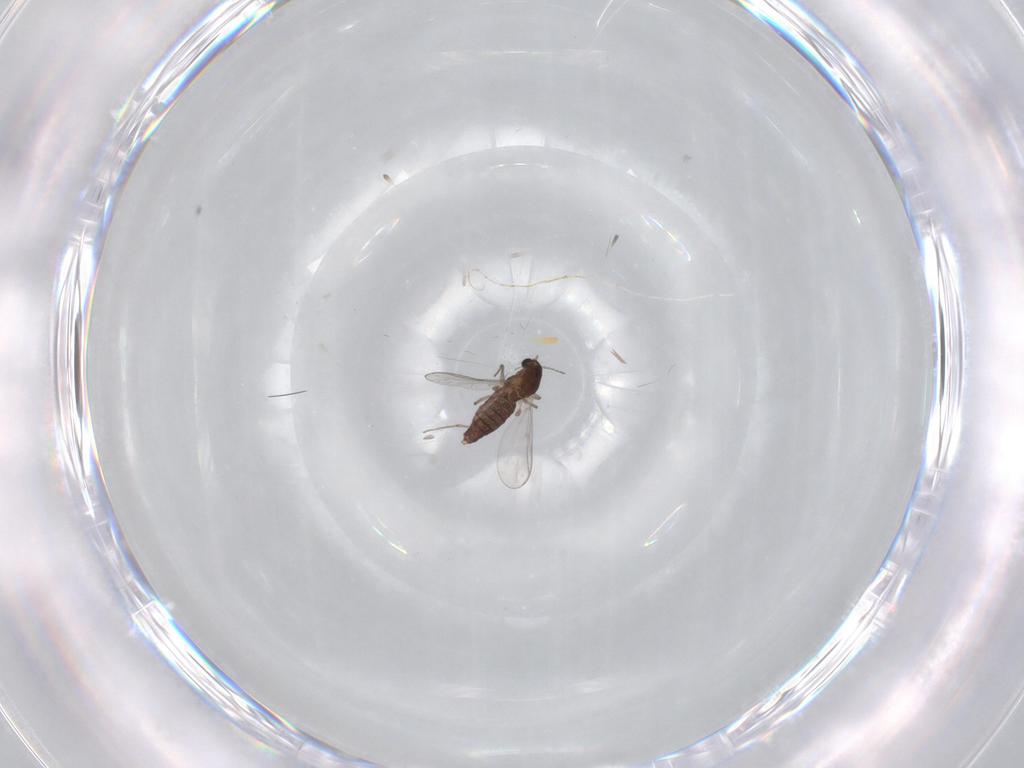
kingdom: Animalia
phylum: Arthropoda
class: Insecta
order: Diptera
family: Chironomidae
